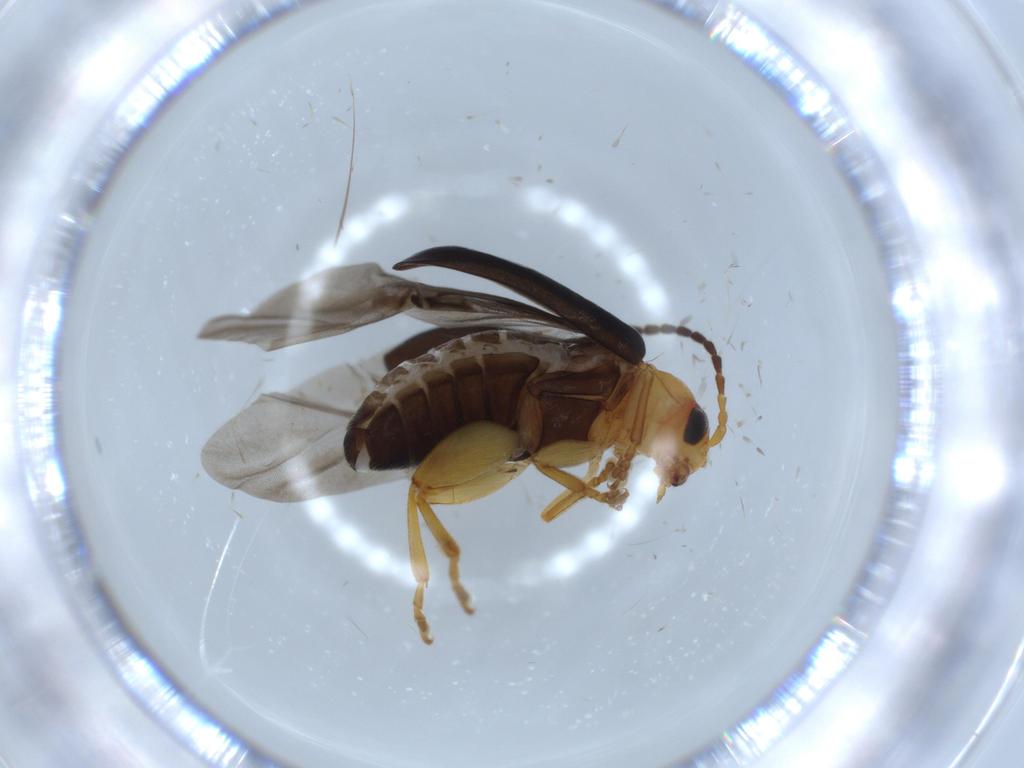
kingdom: Animalia
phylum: Arthropoda
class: Insecta
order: Coleoptera
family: Chrysomelidae
